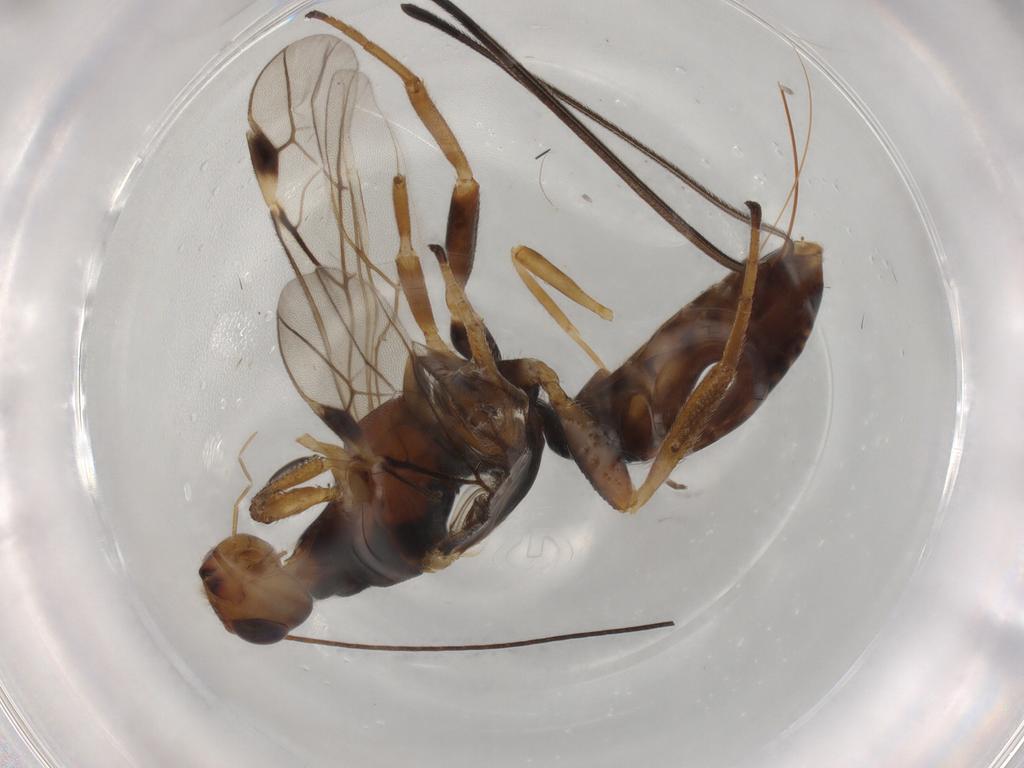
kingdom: Animalia
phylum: Arthropoda
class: Insecta
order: Hymenoptera
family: Braconidae
